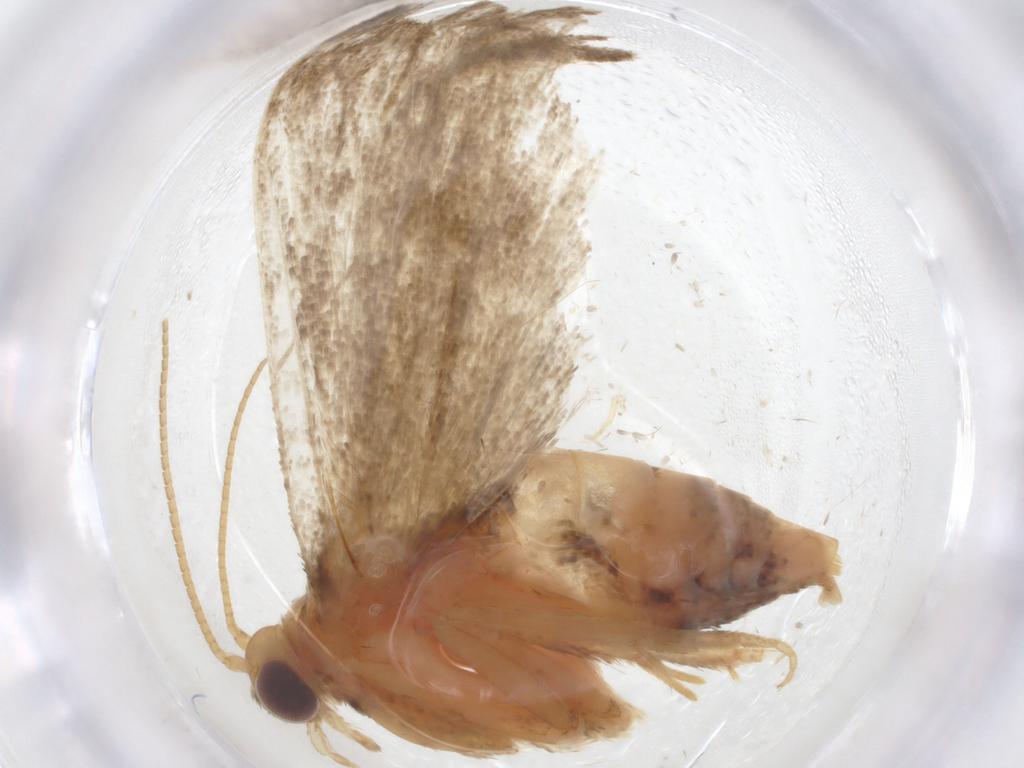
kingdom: Animalia
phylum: Arthropoda
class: Insecta
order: Lepidoptera
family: Pyralidae
